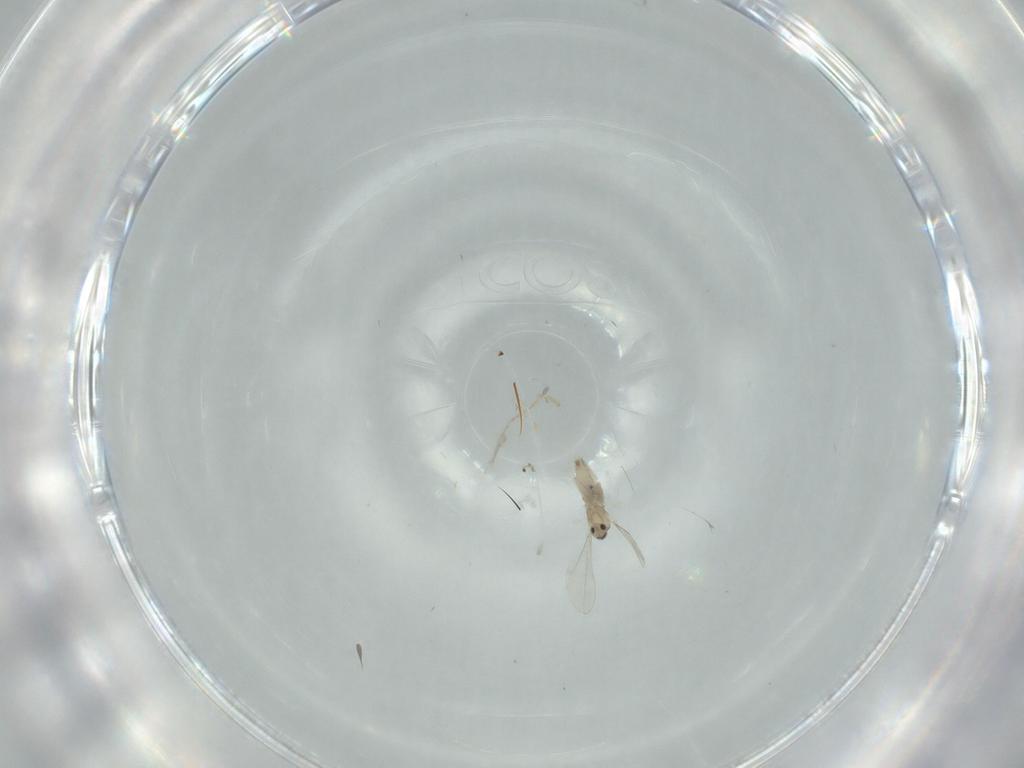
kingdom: Animalia
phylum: Arthropoda
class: Insecta
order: Diptera
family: Cecidomyiidae
